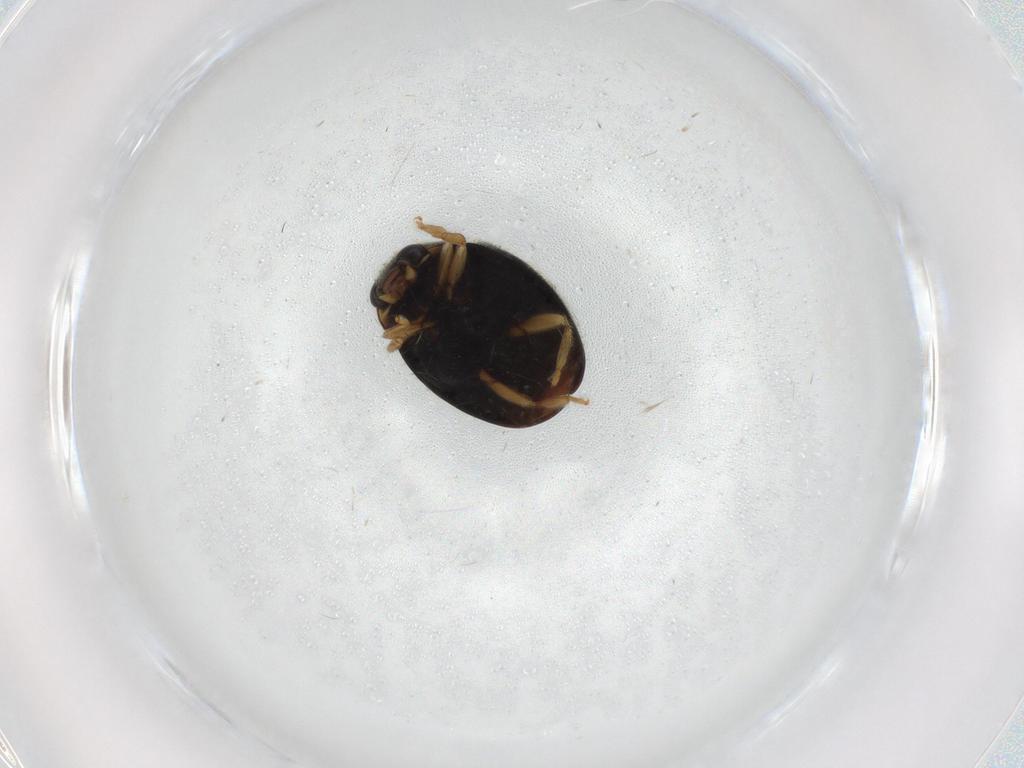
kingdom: Animalia
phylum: Arthropoda
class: Insecta
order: Coleoptera
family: Coccinellidae
